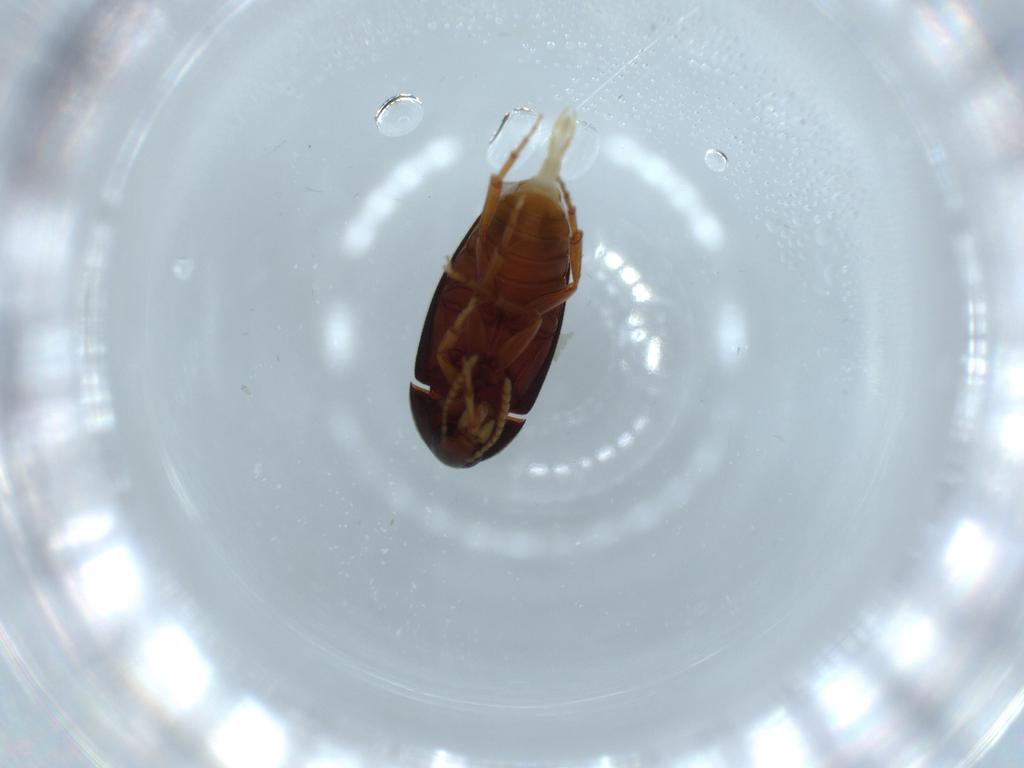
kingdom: Animalia
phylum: Arthropoda
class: Insecta
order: Coleoptera
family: Scraptiidae
